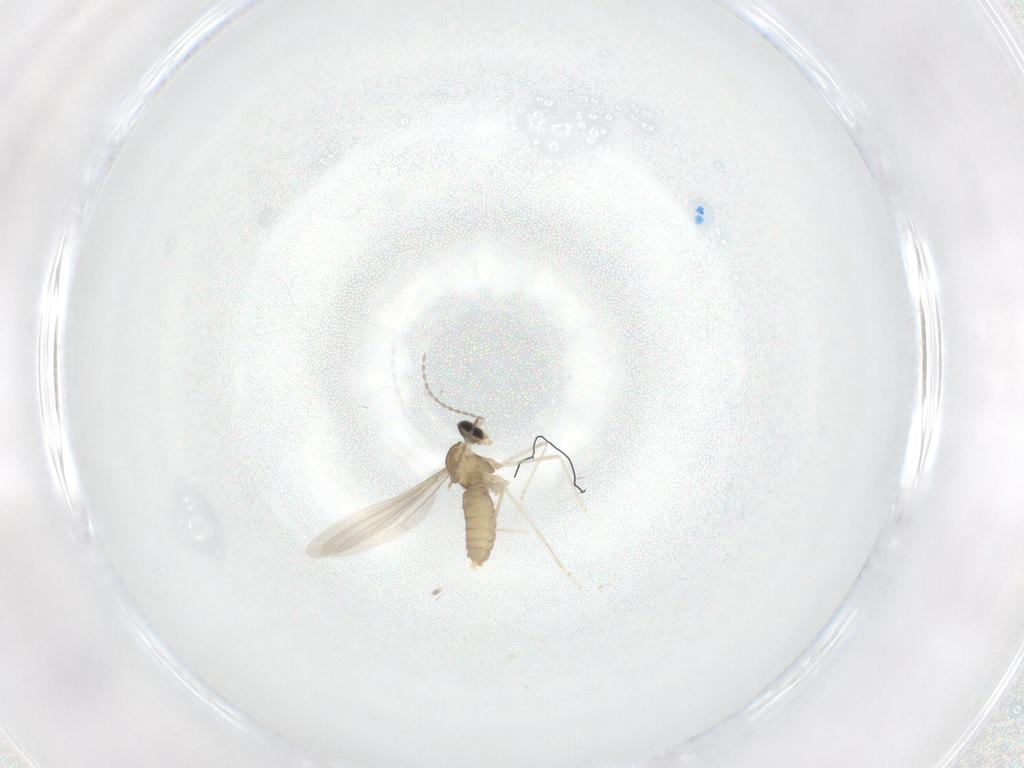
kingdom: Animalia
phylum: Arthropoda
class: Insecta
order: Diptera
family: Cecidomyiidae
